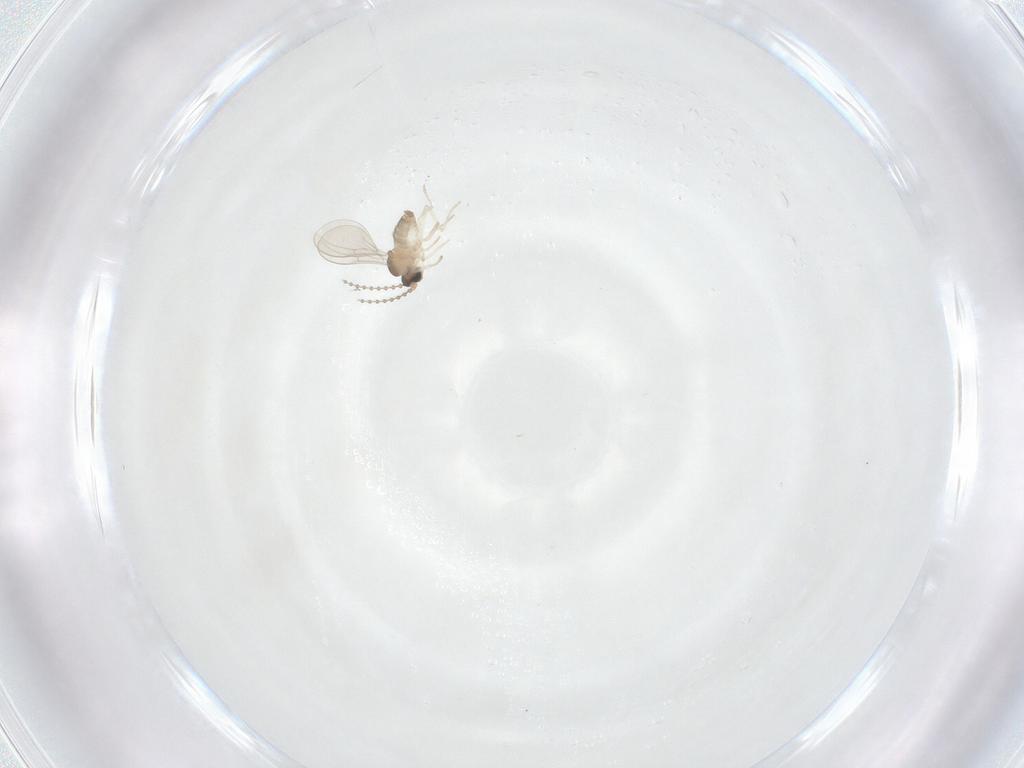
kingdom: Animalia
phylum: Arthropoda
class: Insecta
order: Diptera
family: Cecidomyiidae
